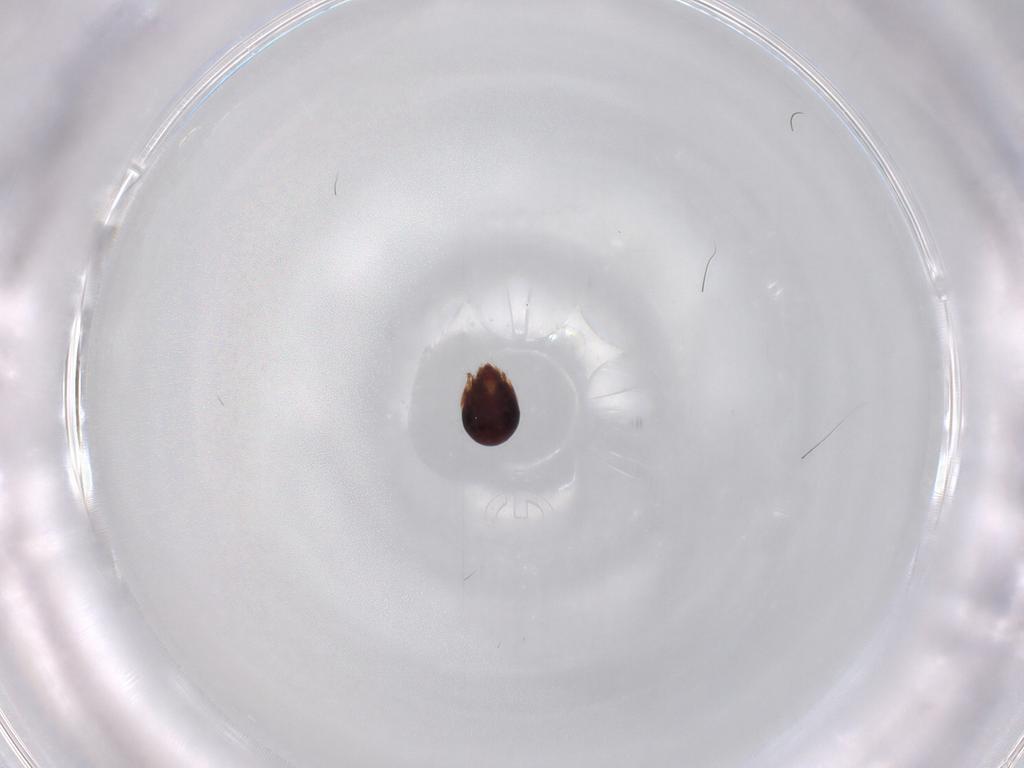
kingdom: Animalia
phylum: Arthropoda
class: Arachnida
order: Sarcoptiformes
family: Humerobatidae
